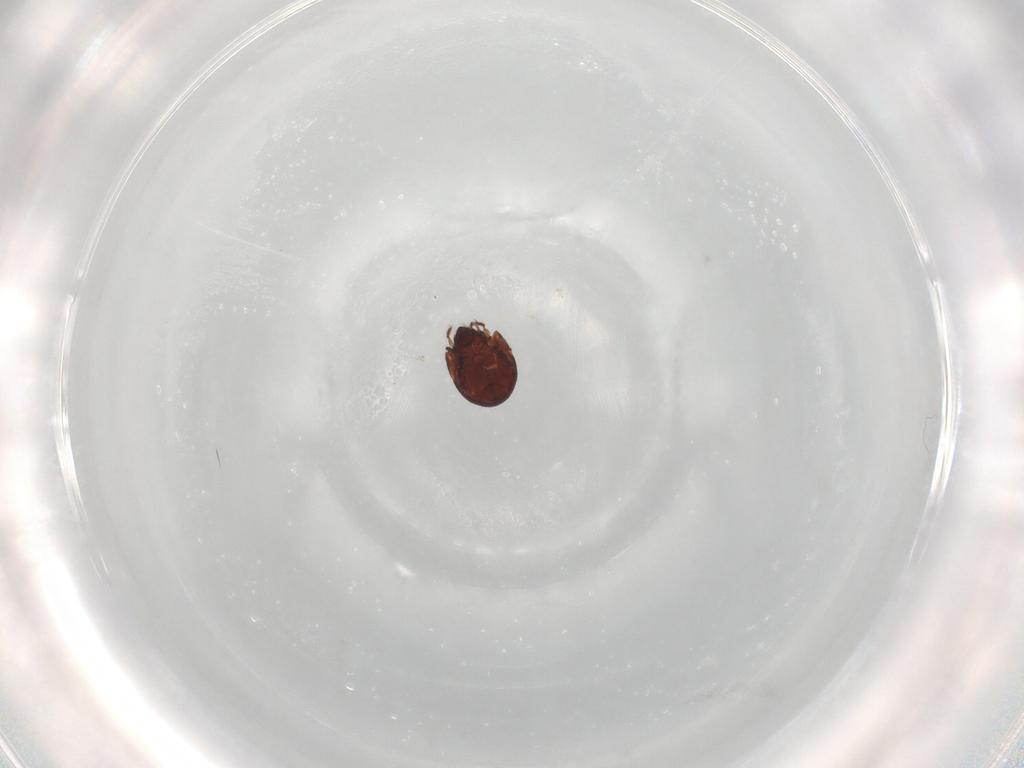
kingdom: Animalia
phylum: Arthropoda
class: Arachnida
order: Sarcoptiformes
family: Humerobatidae
